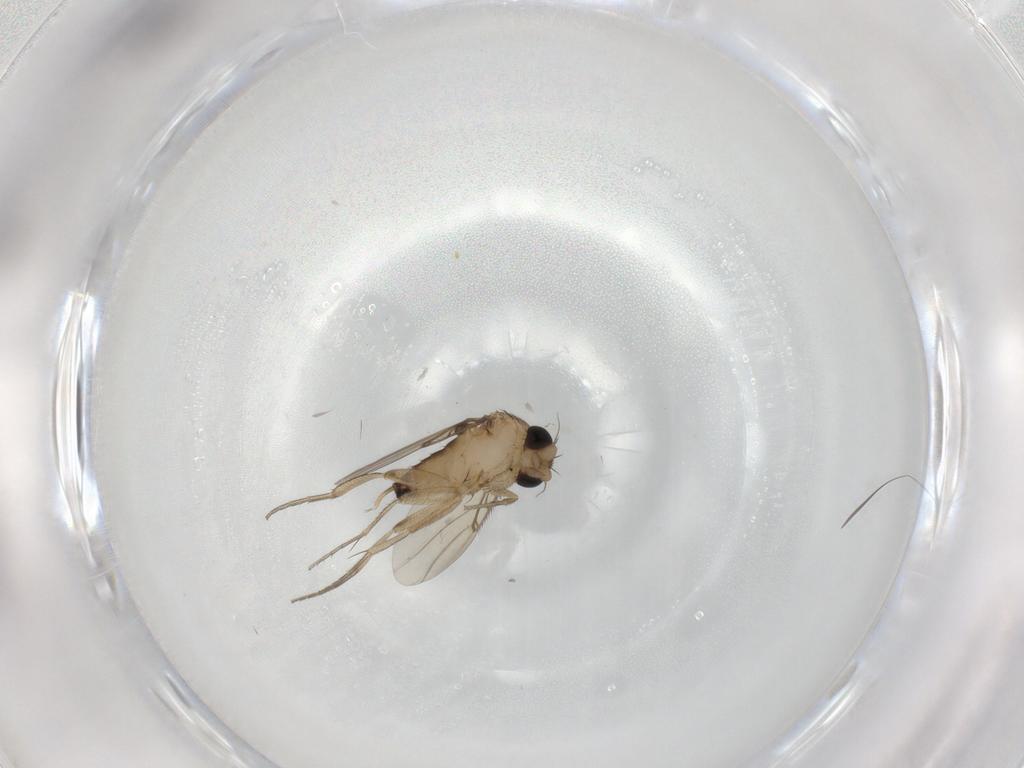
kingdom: Animalia
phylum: Arthropoda
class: Insecta
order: Diptera
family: Phoridae
